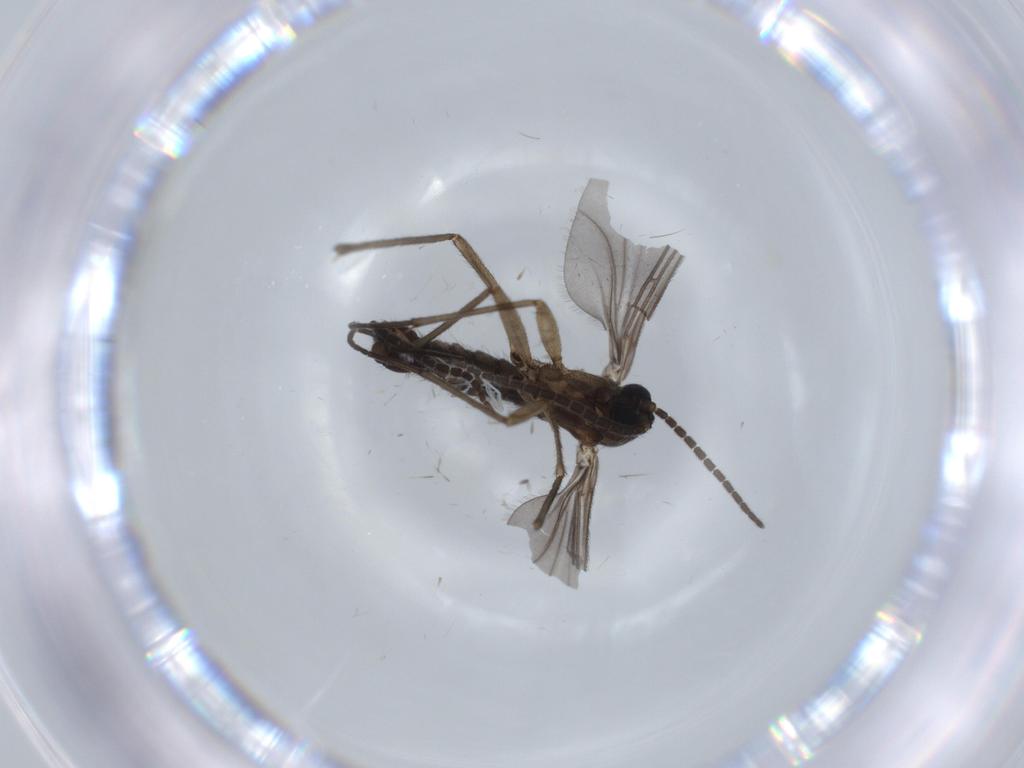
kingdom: Animalia
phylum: Arthropoda
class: Insecta
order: Diptera
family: Sciaridae
